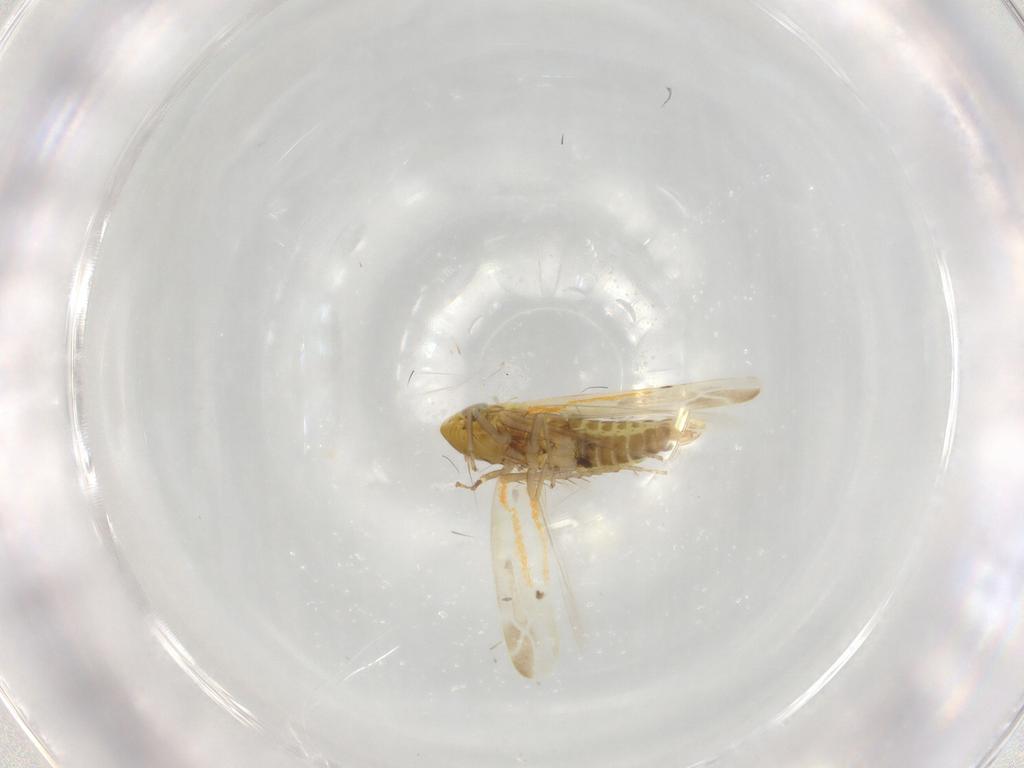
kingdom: Animalia
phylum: Arthropoda
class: Insecta
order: Hemiptera
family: Cicadellidae
